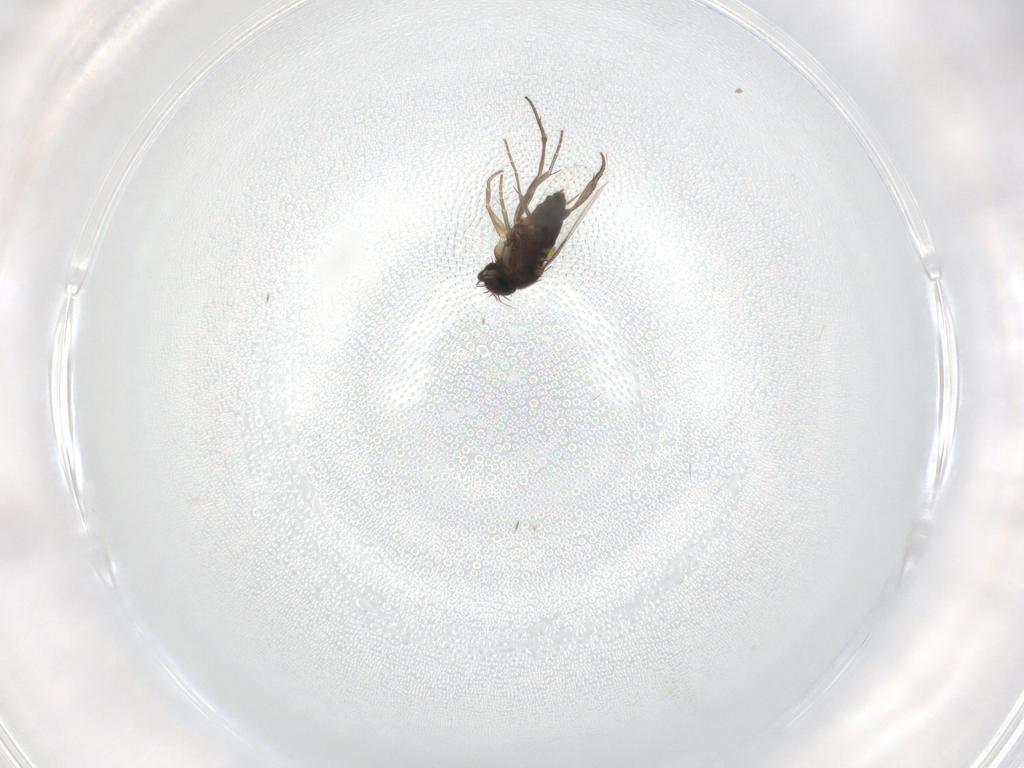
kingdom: Animalia
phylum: Arthropoda
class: Insecta
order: Diptera
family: Phoridae
